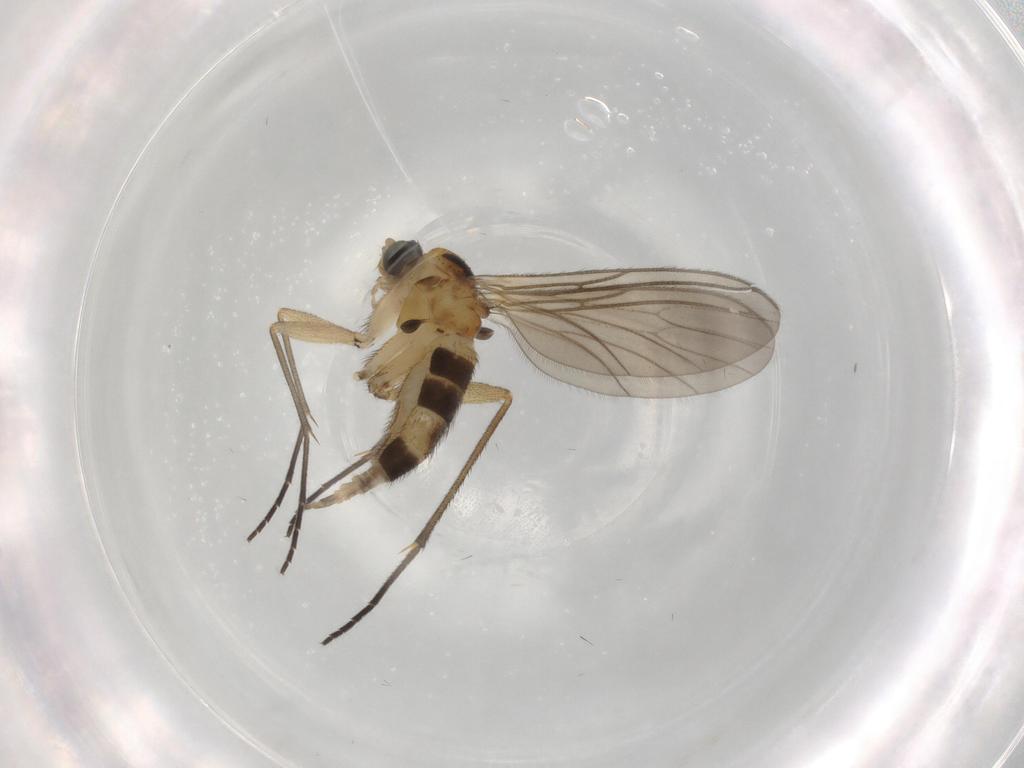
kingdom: Animalia
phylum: Arthropoda
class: Insecta
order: Diptera
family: Sciaridae
